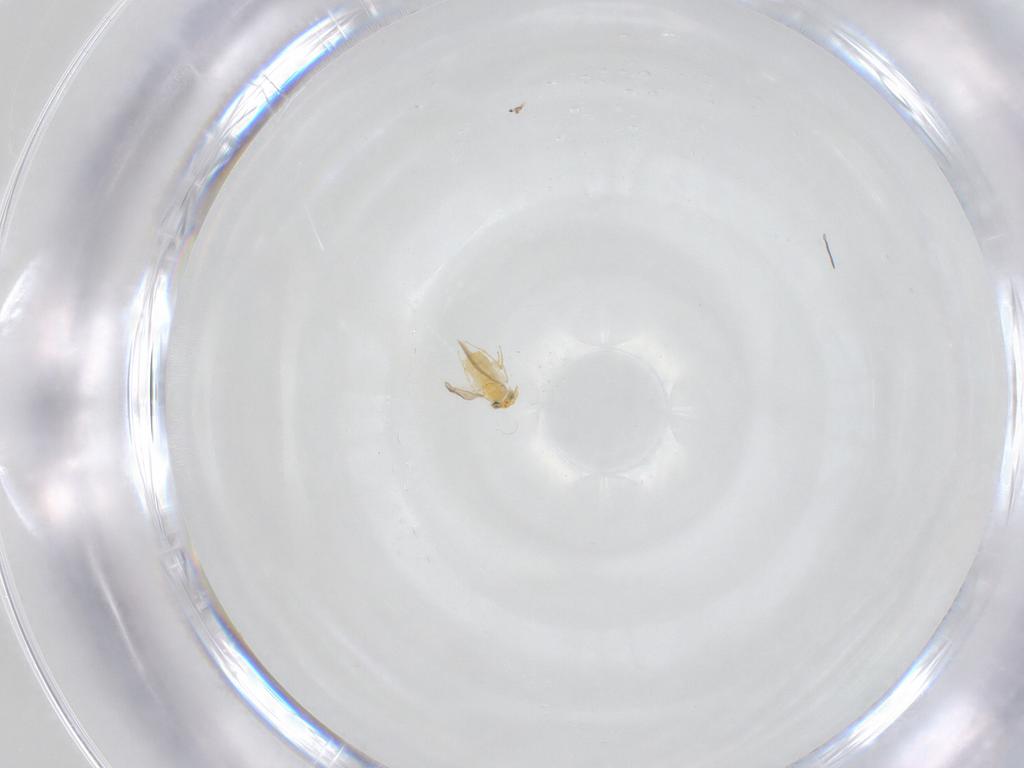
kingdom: Animalia
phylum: Arthropoda
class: Insecta
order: Hymenoptera
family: Aphelinidae
